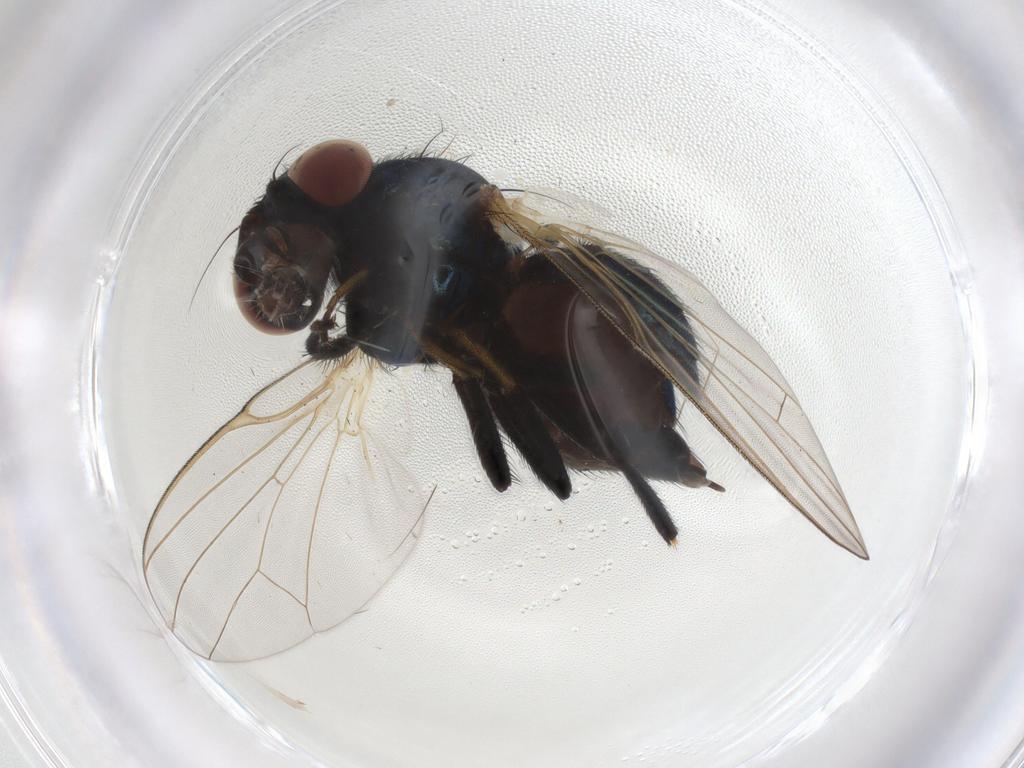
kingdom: Animalia
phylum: Arthropoda
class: Insecta
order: Diptera
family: Lonchaeidae
